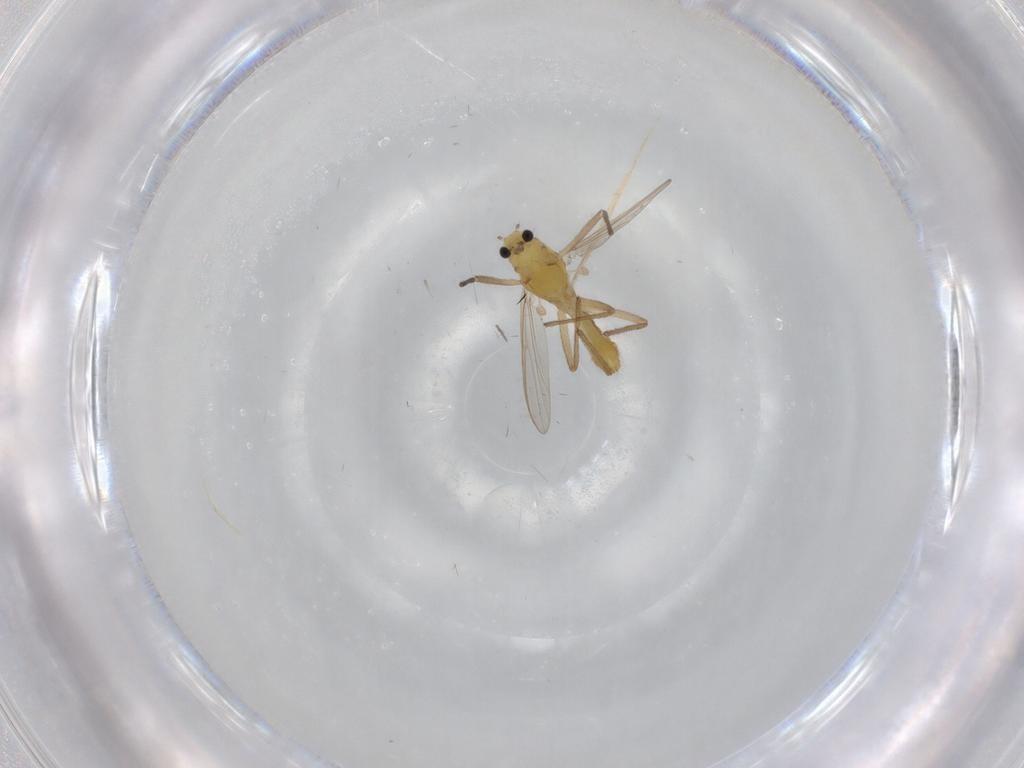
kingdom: Animalia
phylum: Arthropoda
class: Insecta
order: Diptera
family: Chironomidae
